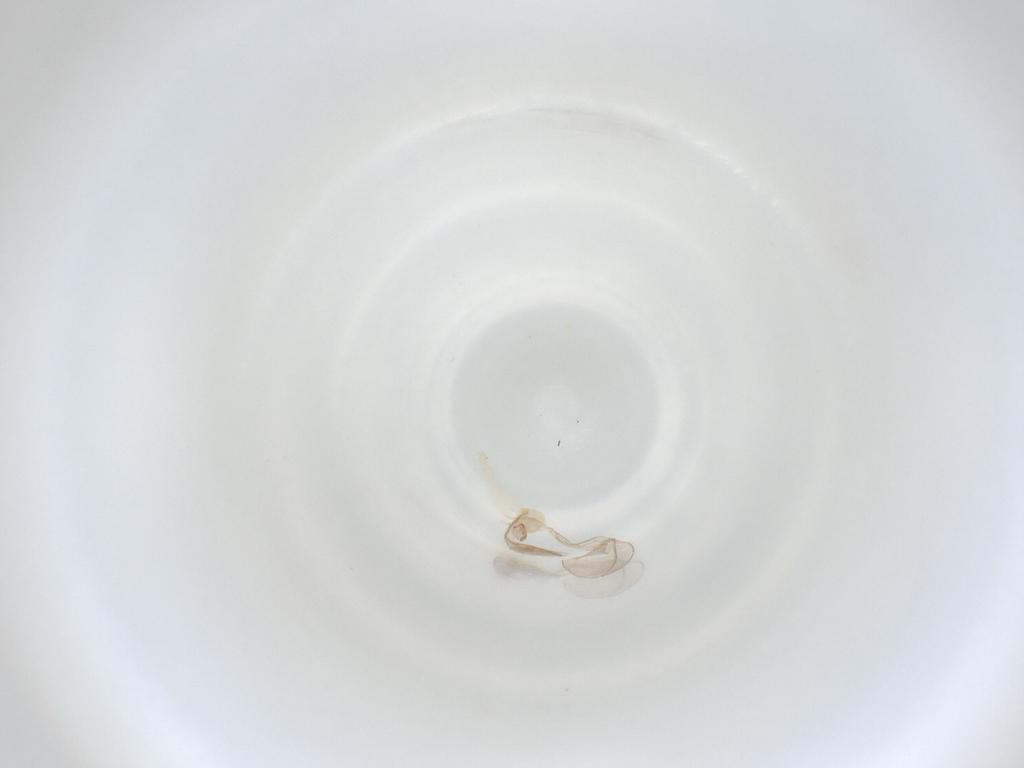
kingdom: Animalia
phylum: Arthropoda
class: Insecta
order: Diptera
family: Cecidomyiidae
